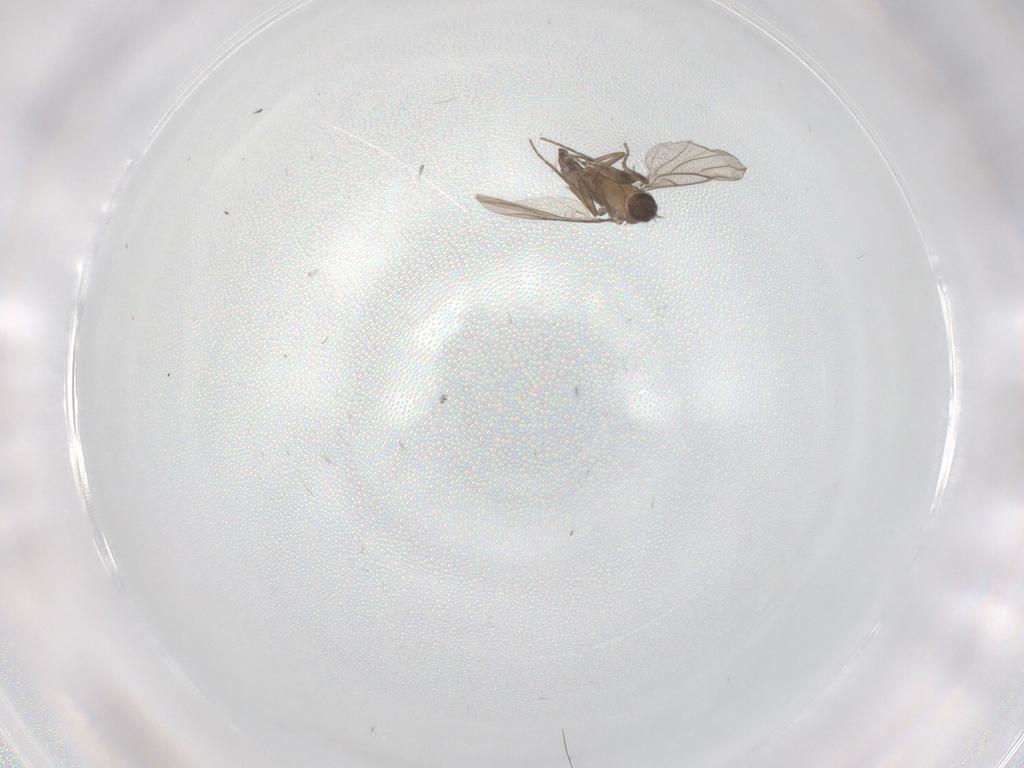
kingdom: Animalia
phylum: Arthropoda
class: Insecta
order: Diptera
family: Phoridae
